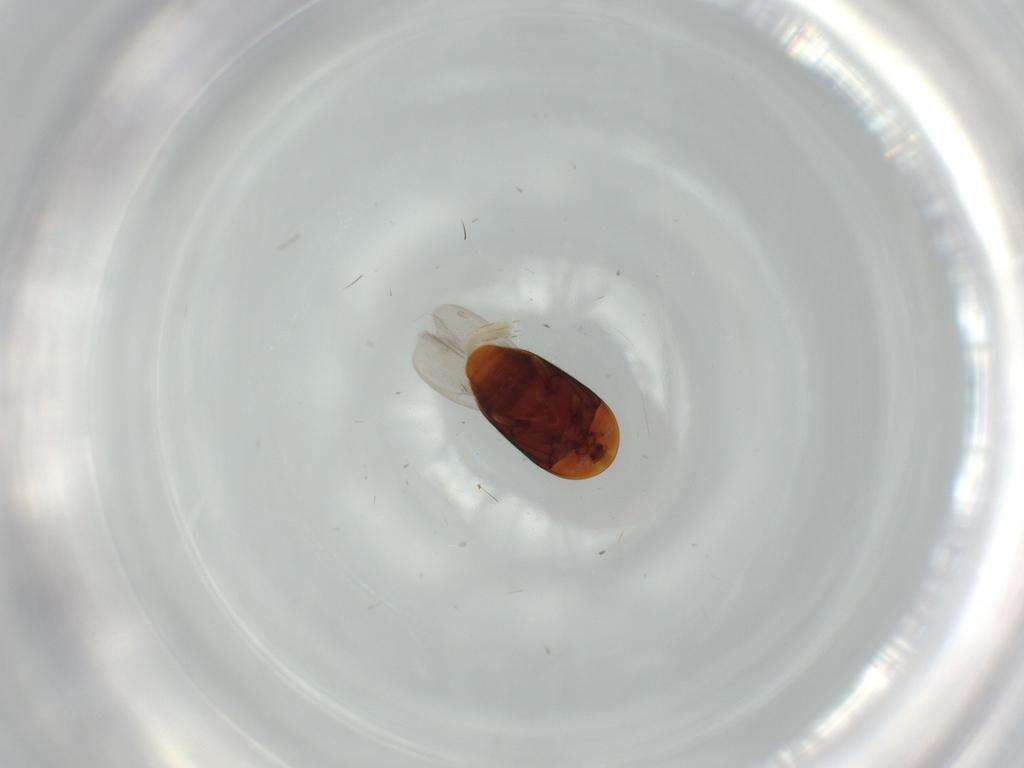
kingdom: Animalia
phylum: Arthropoda
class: Insecta
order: Coleoptera
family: Corylophidae
